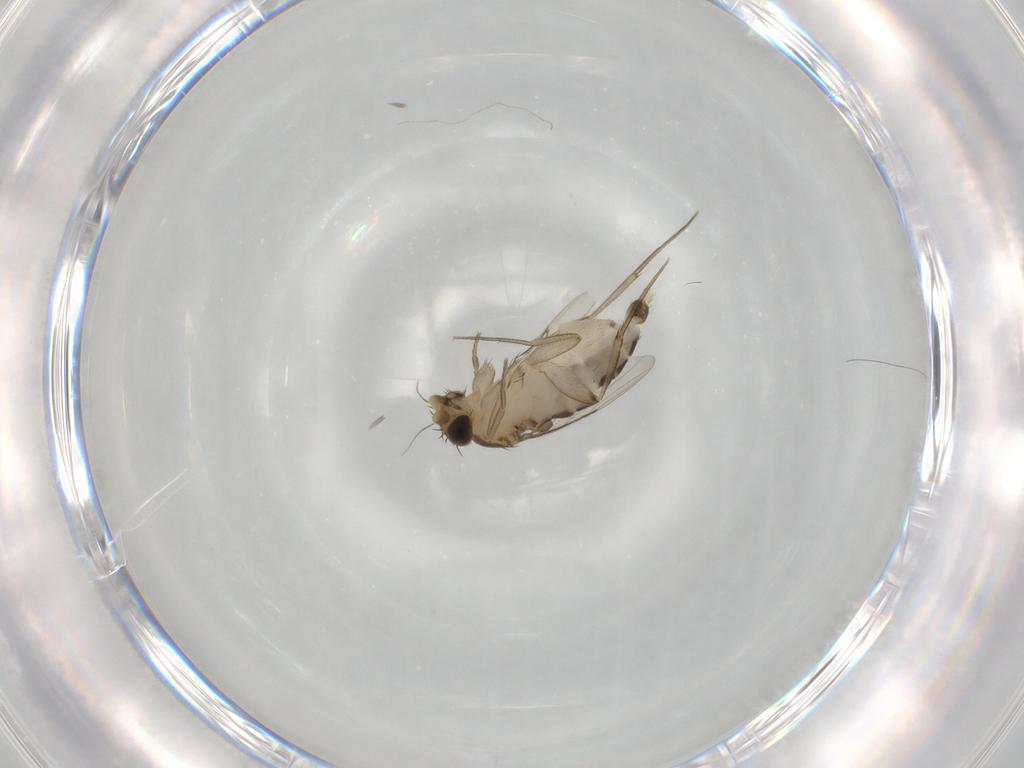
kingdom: Animalia
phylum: Arthropoda
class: Insecta
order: Diptera
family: Phoridae
